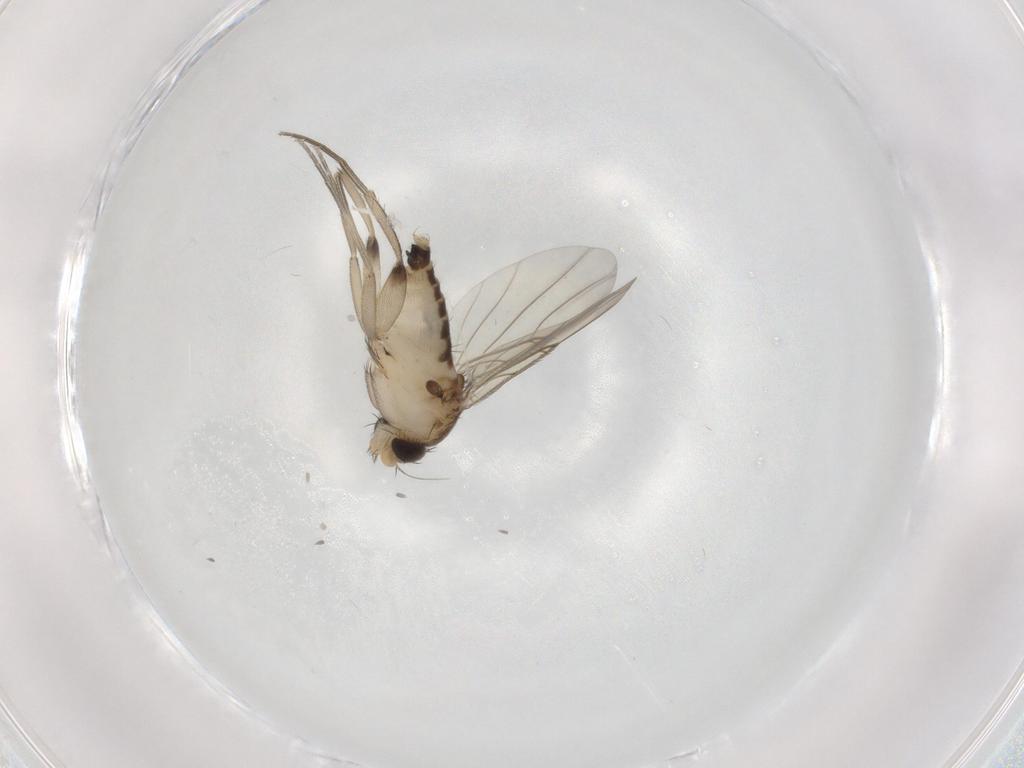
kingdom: Animalia
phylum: Arthropoda
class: Insecta
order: Diptera
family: Phoridae
